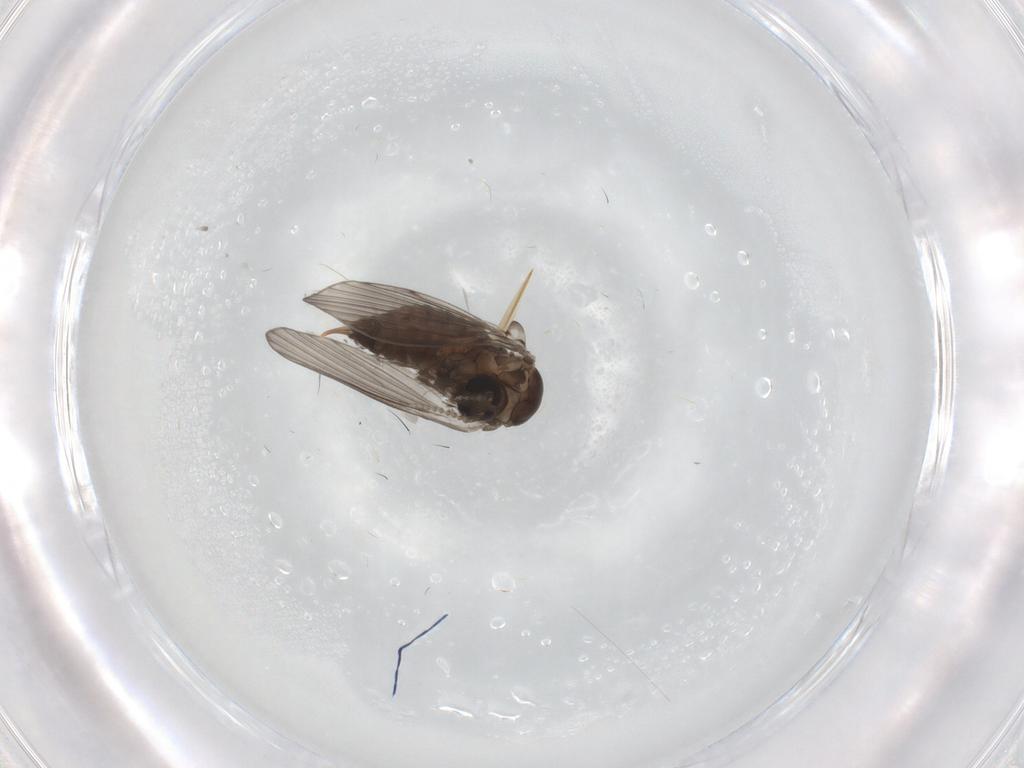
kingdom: Animalia
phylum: Arthropoda
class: Insecta
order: Diptera
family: Psychodidae
